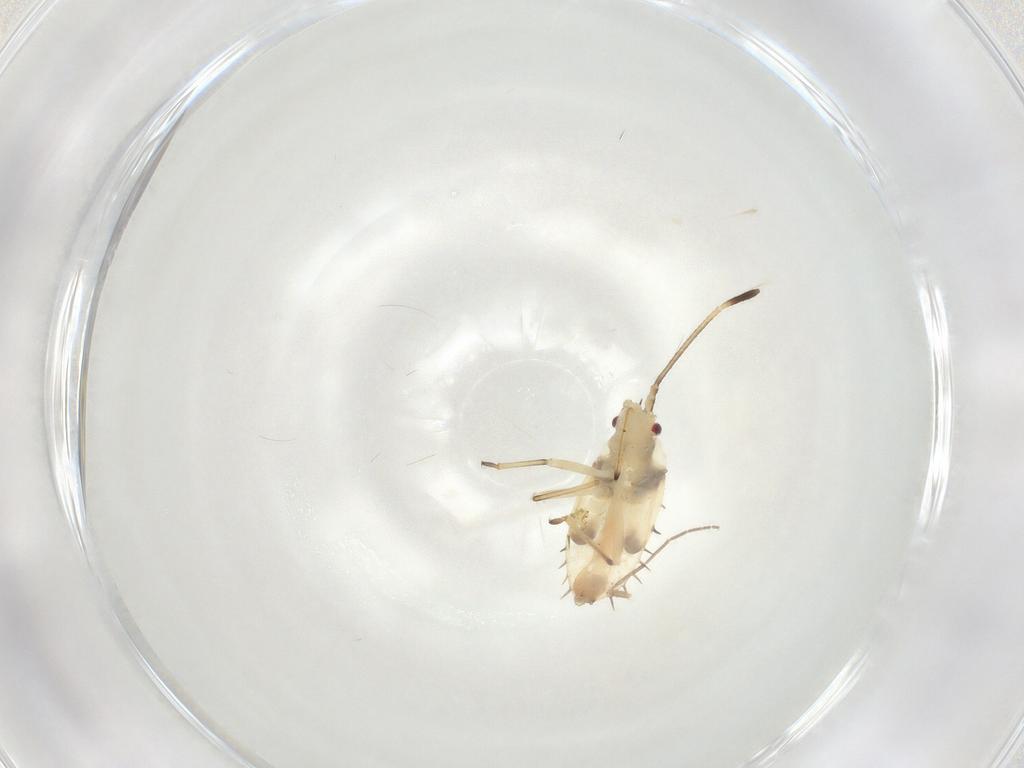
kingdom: Animalia
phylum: Arthropoda
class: Insecta
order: Hemiptera
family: Tingidae
